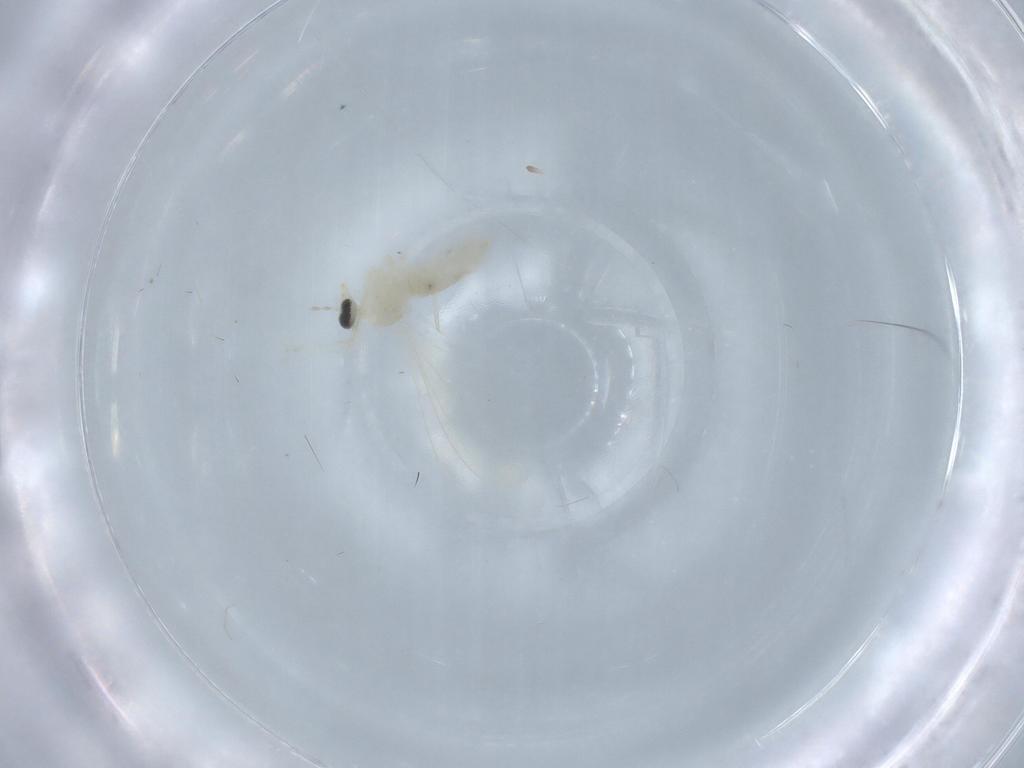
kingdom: Animalia
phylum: Arthropoda
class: Insecta
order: Diptera
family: Cecidomyiidae
